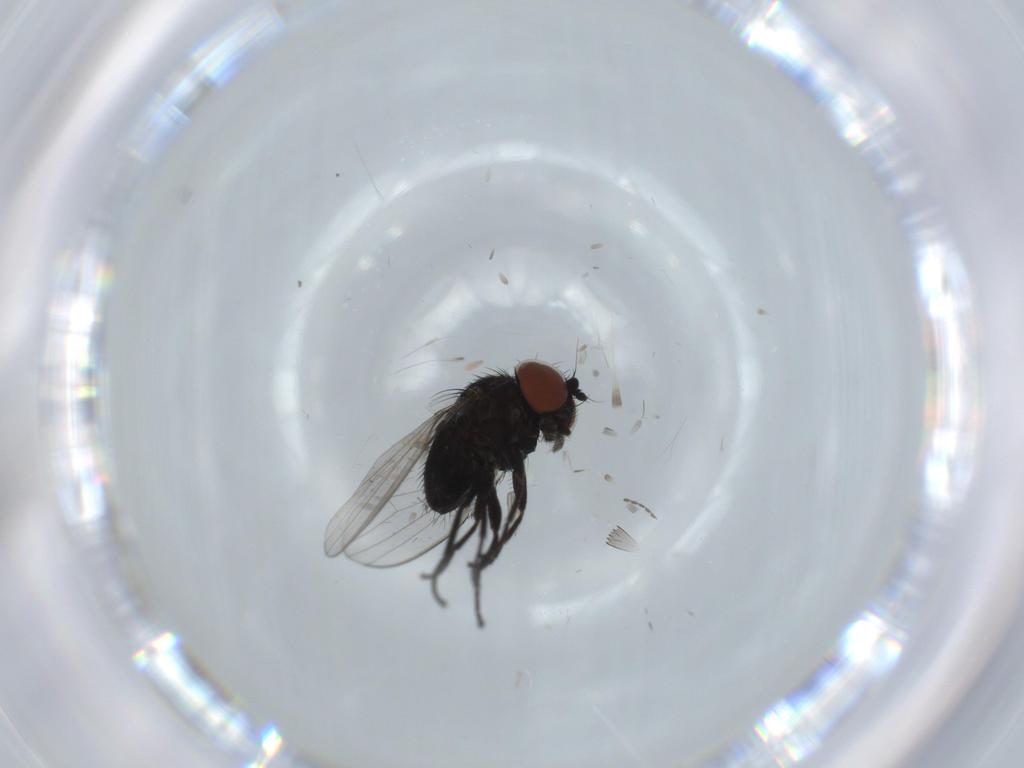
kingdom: Animalia
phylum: Arthropoda
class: Insecta
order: Diptera
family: Milichiidae
